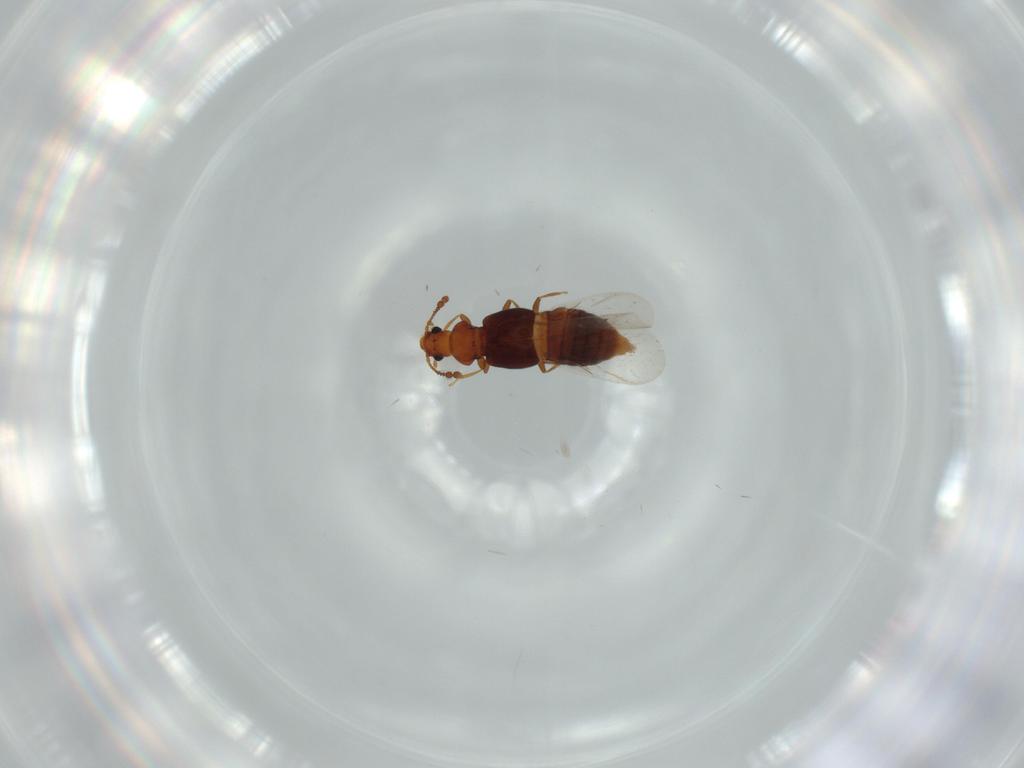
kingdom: Animalia
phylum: Arthropoda
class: Insecta
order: Coleoptera
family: Staphylinidae
